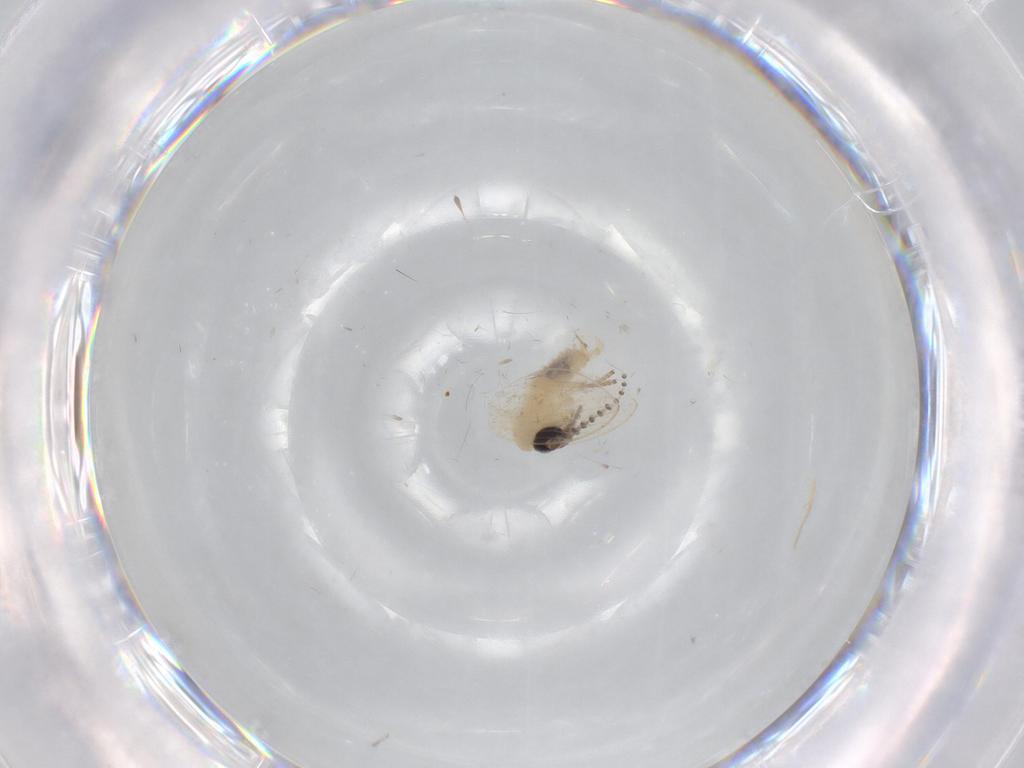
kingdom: Animalia
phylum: Arthropoda
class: Insecta
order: Diptera
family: Psychodidae
